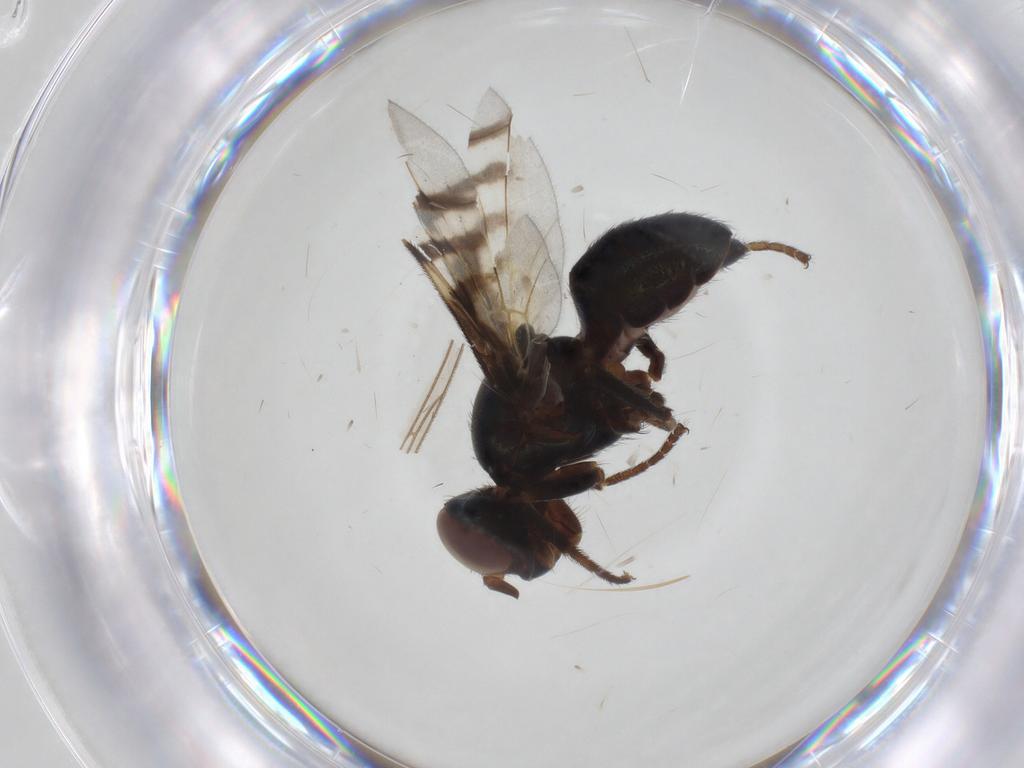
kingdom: Animalia
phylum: Arthropoda
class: Insecta
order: Diptera
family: Platystomatidae
